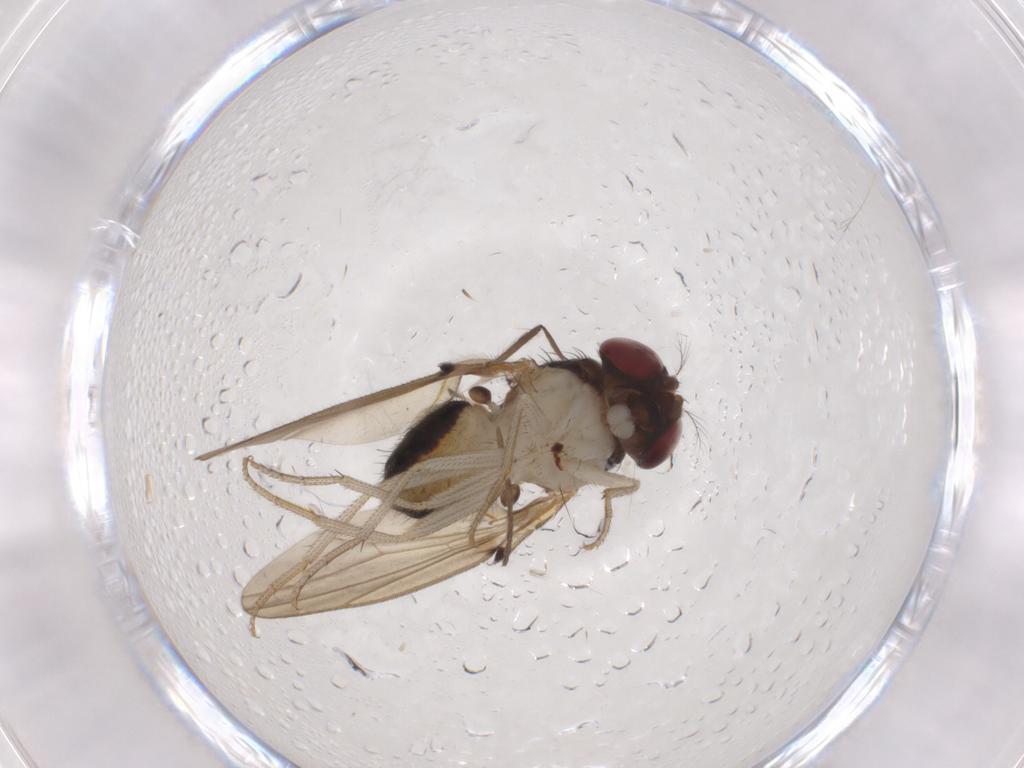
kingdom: Animalia
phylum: Arthropoda
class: Insecta
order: Diptera
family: Drosophilidae
